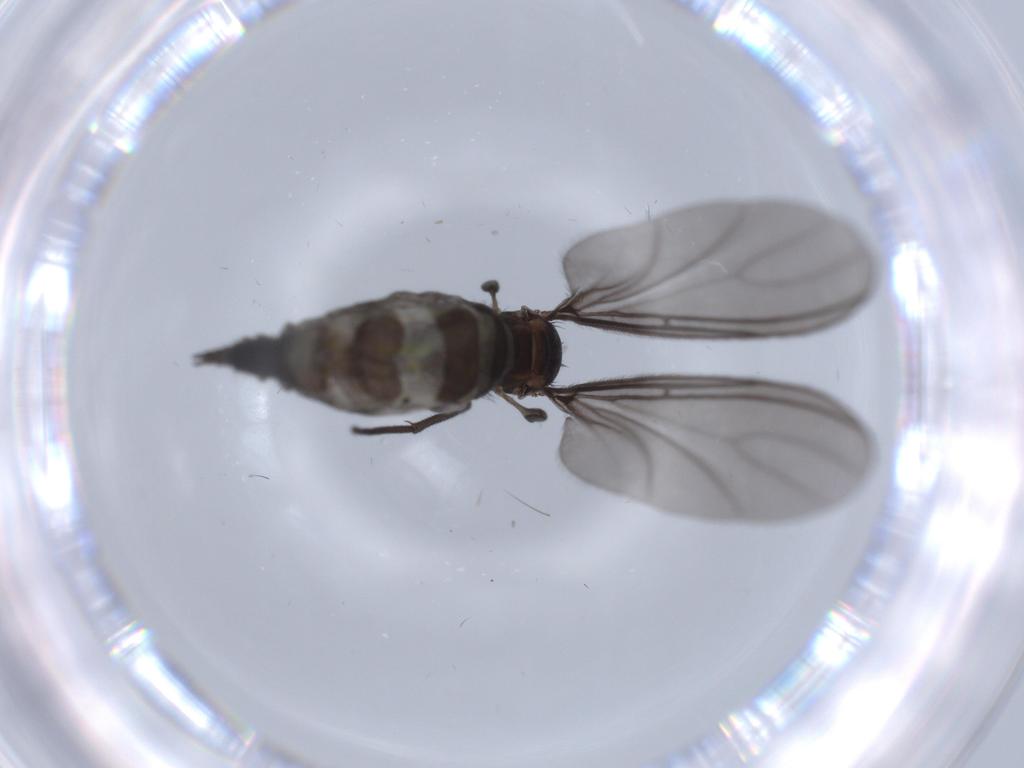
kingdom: Animalia
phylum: Arthropoda
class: Insecta
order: Diptera
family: Sciaridae
